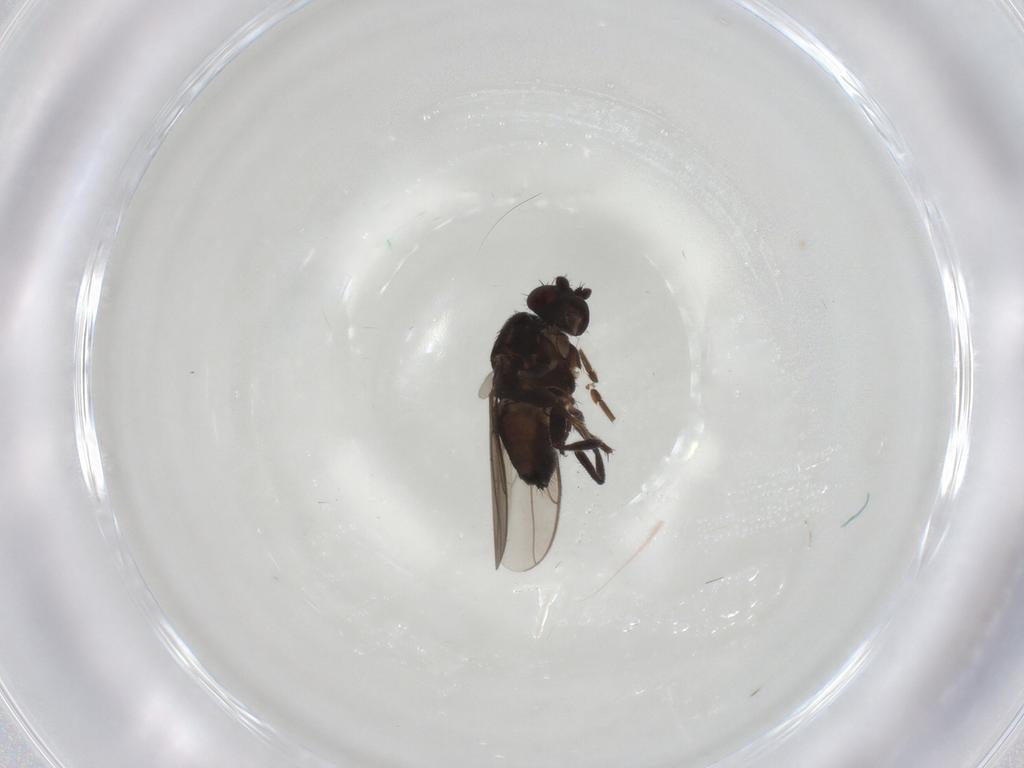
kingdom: Animalia
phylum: Arthropoda
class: Insecta
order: Diptera
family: Sphaeroceridae
